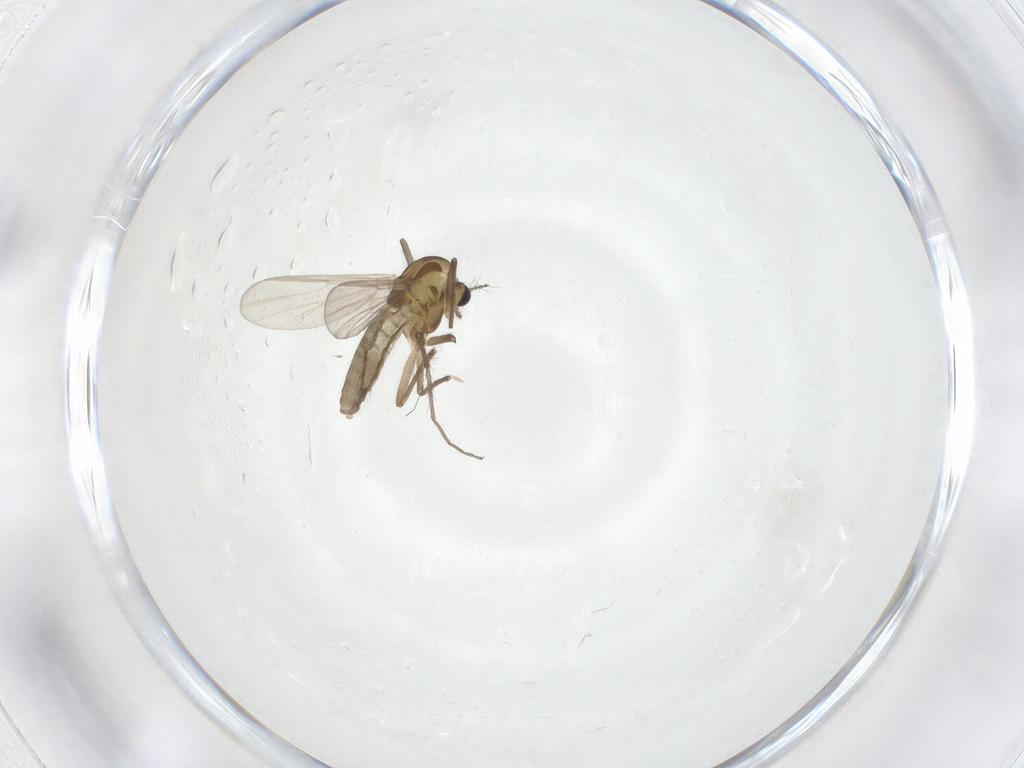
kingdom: Animalia
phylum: Arthropoda
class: Insecta
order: Diptera
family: Chironomidae
